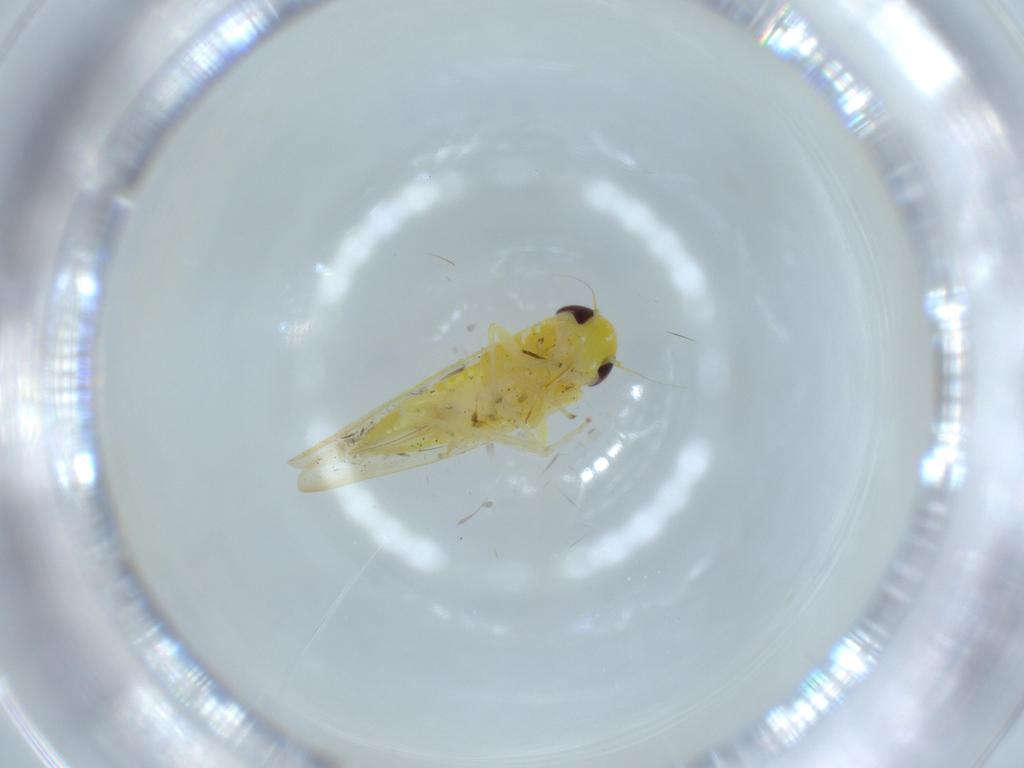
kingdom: Animalia
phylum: Arthropoda
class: Insecta
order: Hemiptera
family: Cicadellidae
